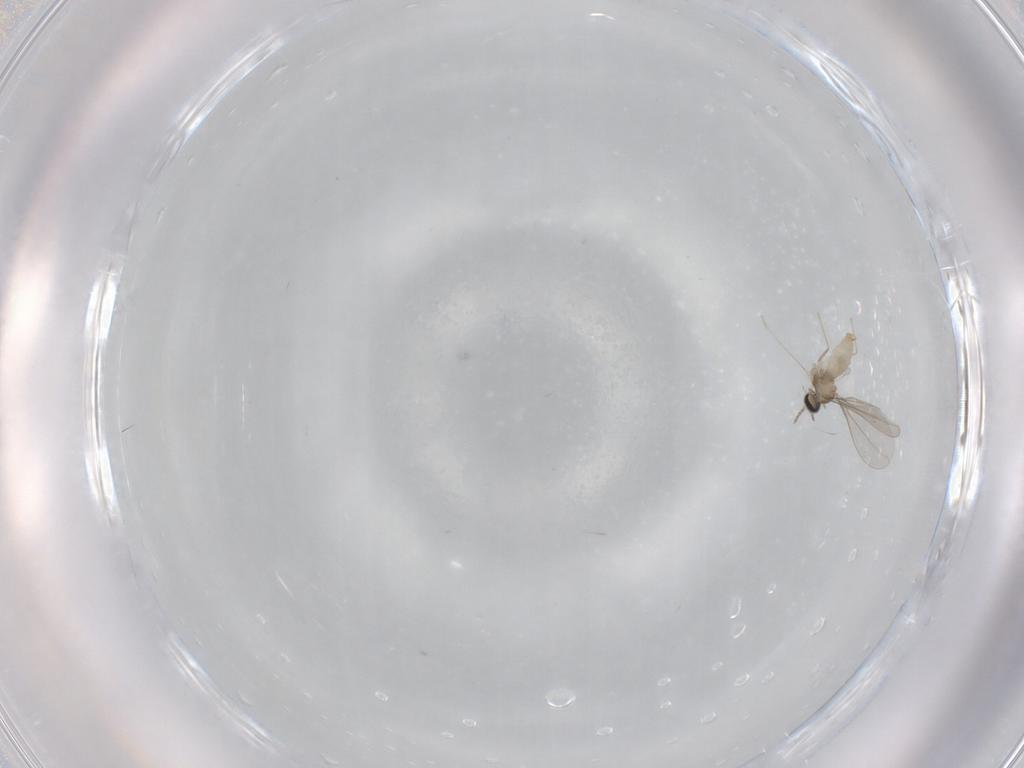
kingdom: Animalia
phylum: Arthropoda
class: Insecta
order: Diptera
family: Cecidomyiidae
